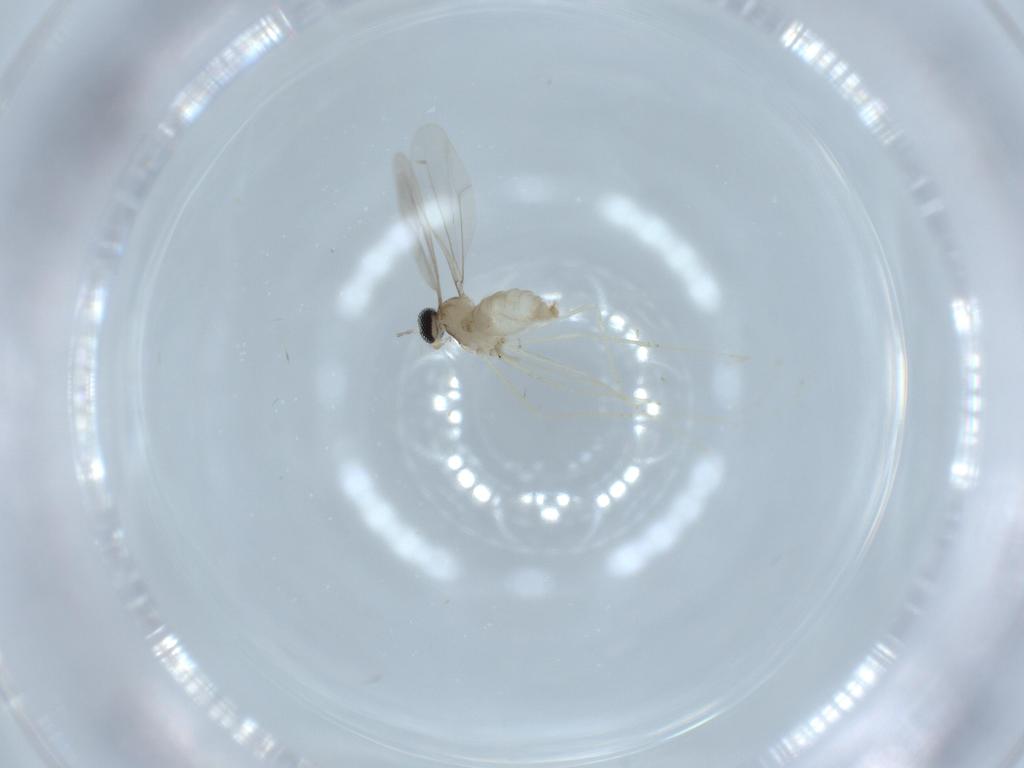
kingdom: Animalia
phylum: Arthropoda
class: Insecta
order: Diptera
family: Cecidomyiidae
